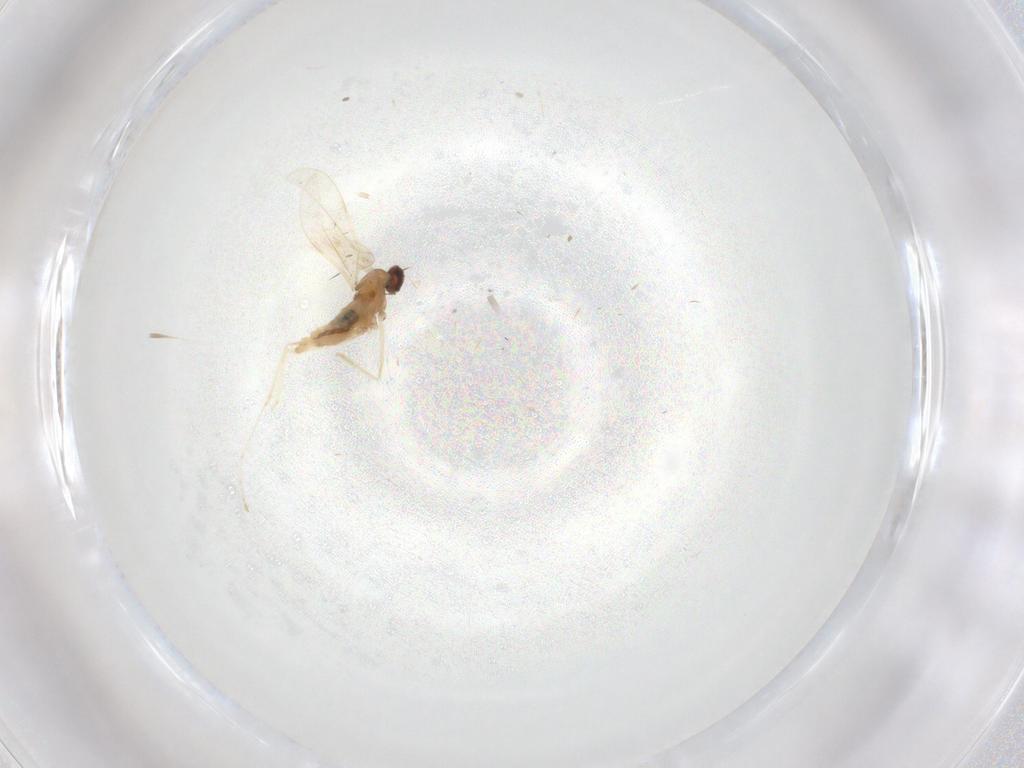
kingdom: Animalia
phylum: Arthropoda
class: Insecta
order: Diptera
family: Cecidomyiidae
